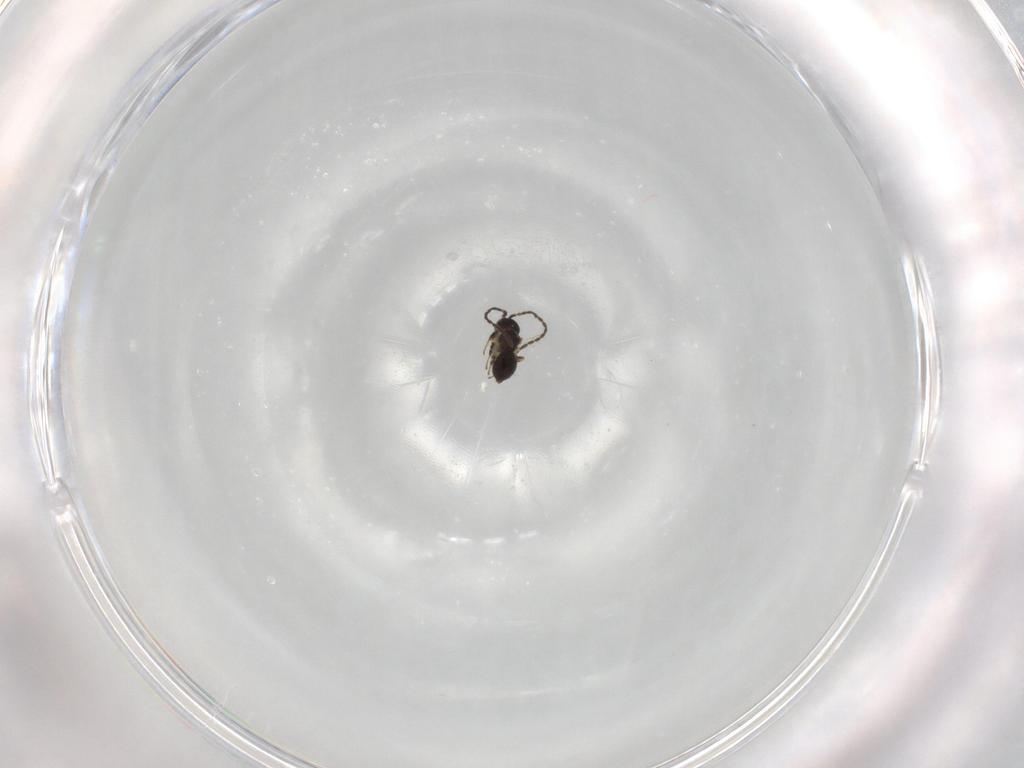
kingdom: Animalia
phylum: Arthropoda
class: Insecta
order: Hymenoptera
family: Scelionidae
